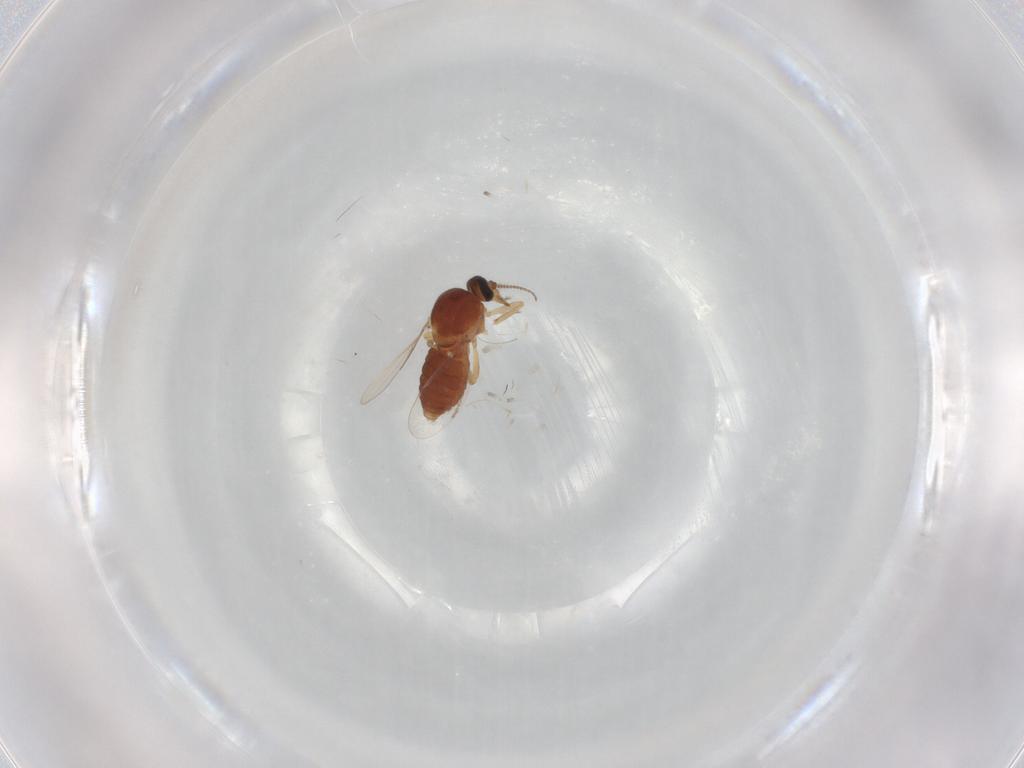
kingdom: Animalia
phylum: Arthropoda
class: Insecta
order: Diptera
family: Ceratopogonidae
